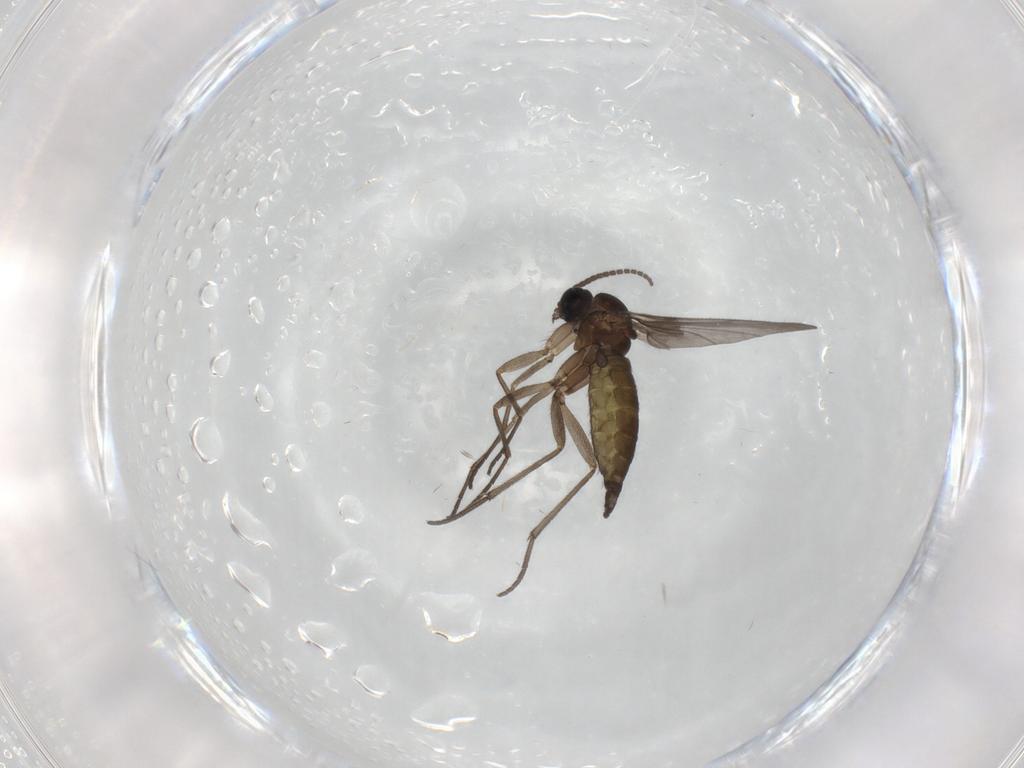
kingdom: Animalia
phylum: Arthropoda
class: Insecta
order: Diptera
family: Sciaridae
